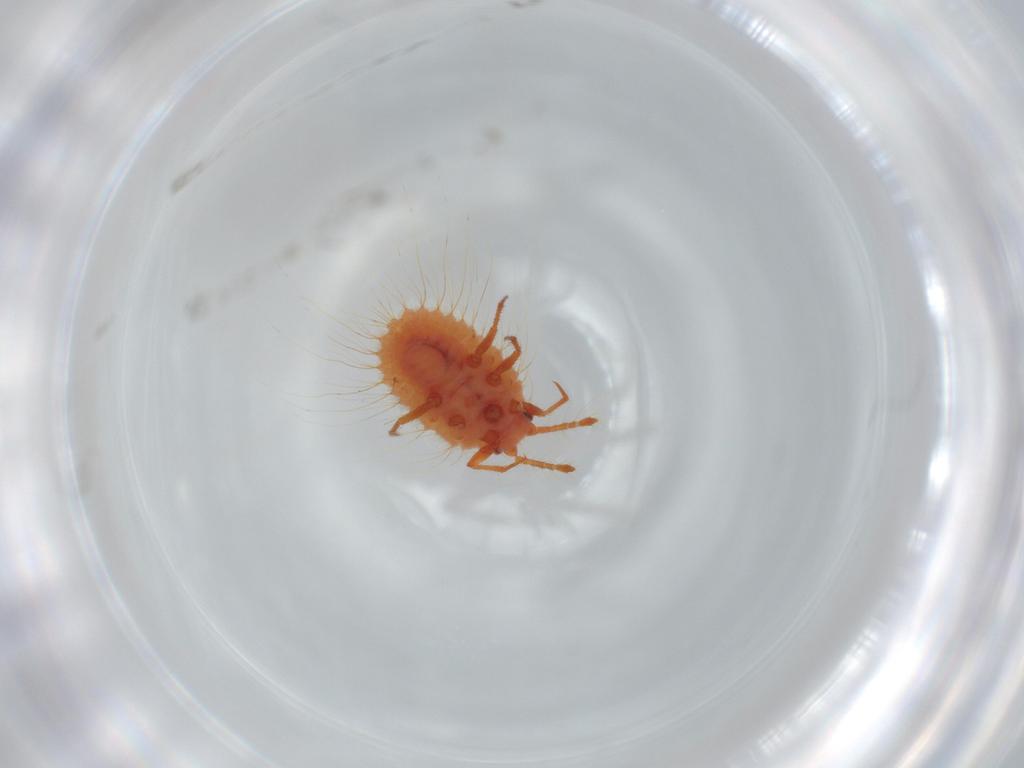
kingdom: Animalia
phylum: Arthropoda
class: Insecta
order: Hemiptera
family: Coccoidea_incertae_sedis
